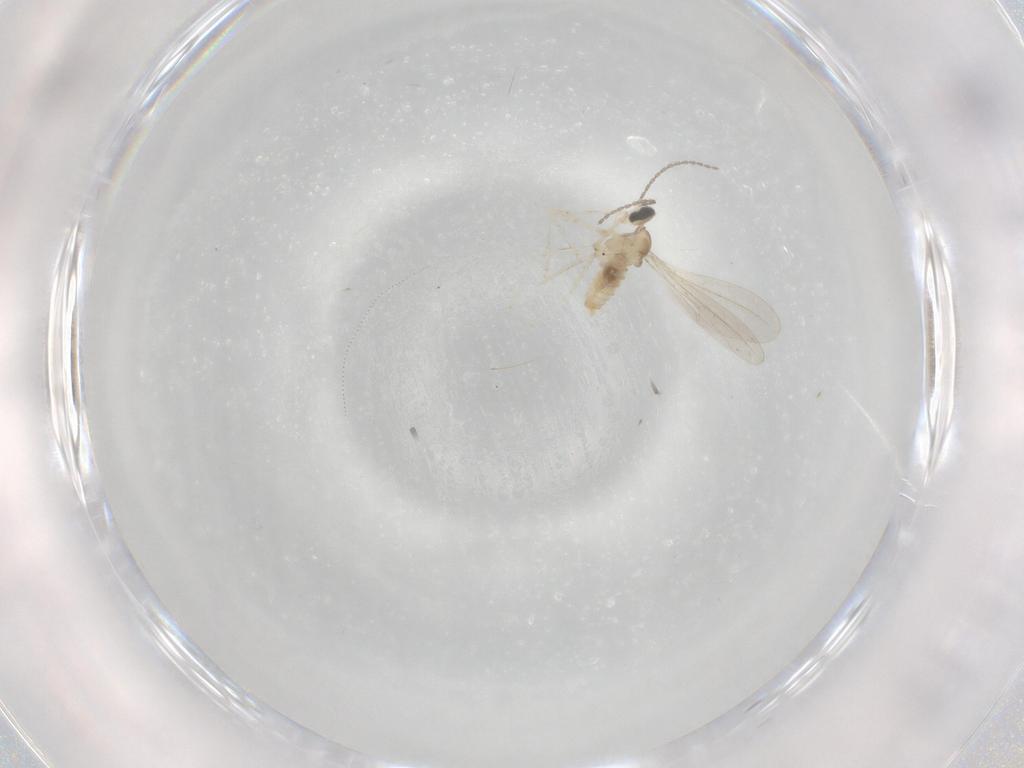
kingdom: Animalia
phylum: Arthropoda
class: Insecta
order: Diptera
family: Cecidomyiidae
